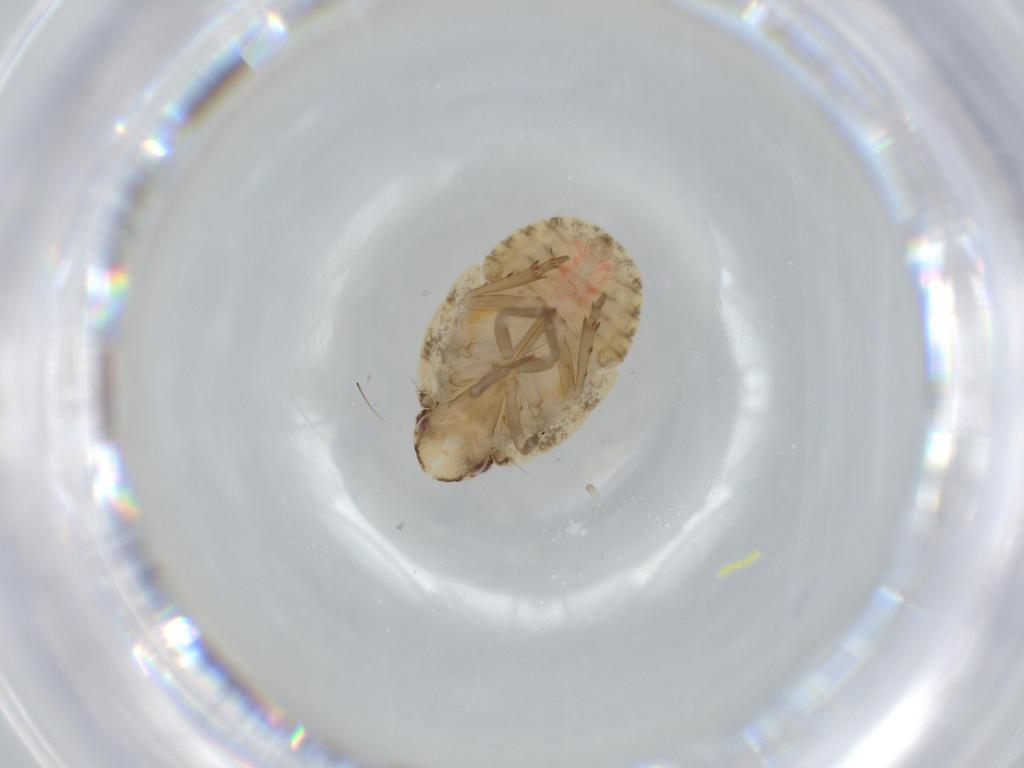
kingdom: Animalia
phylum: Arthropoda
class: Insecta
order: Hemiptera
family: Flatidae
